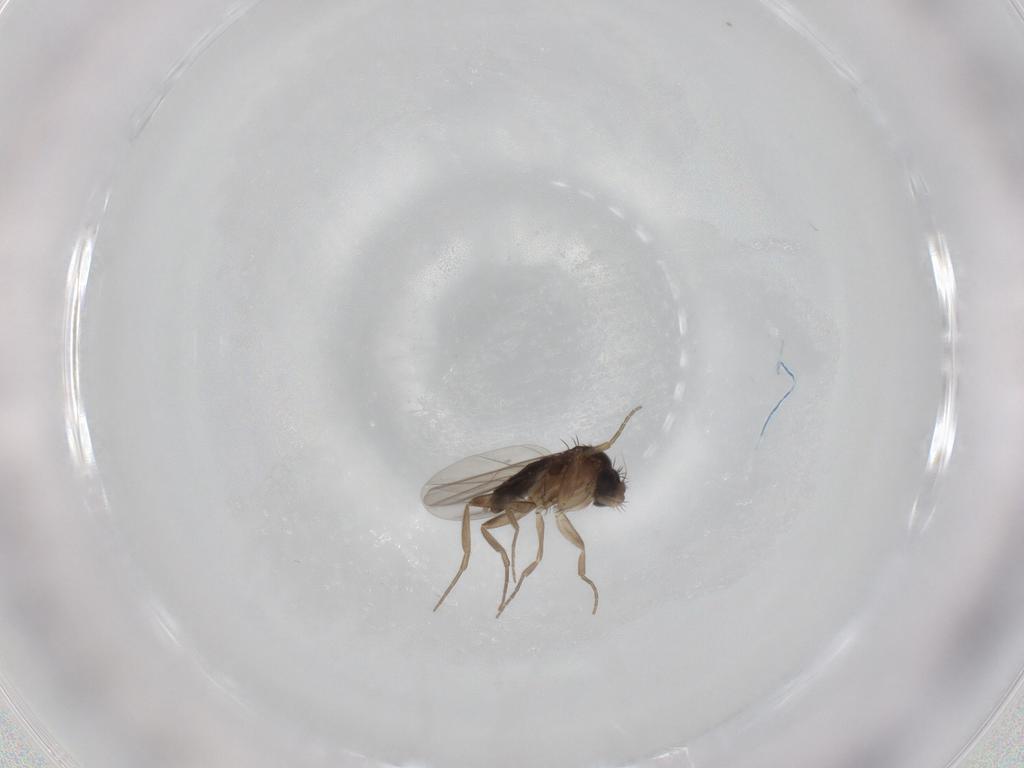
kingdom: Animalia
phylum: Arthropoda
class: Insecta
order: Diptera
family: Phoridae
